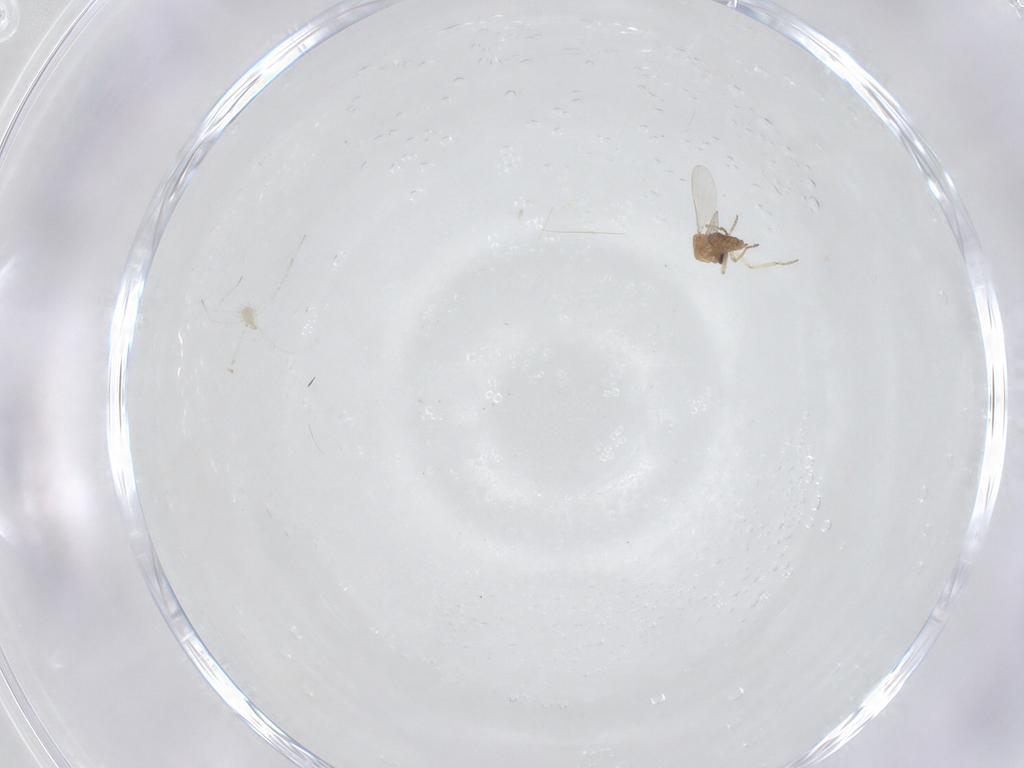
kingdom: Animalia
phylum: Arthropoda
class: Insecta
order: Diptera
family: Ceratopogonidae
